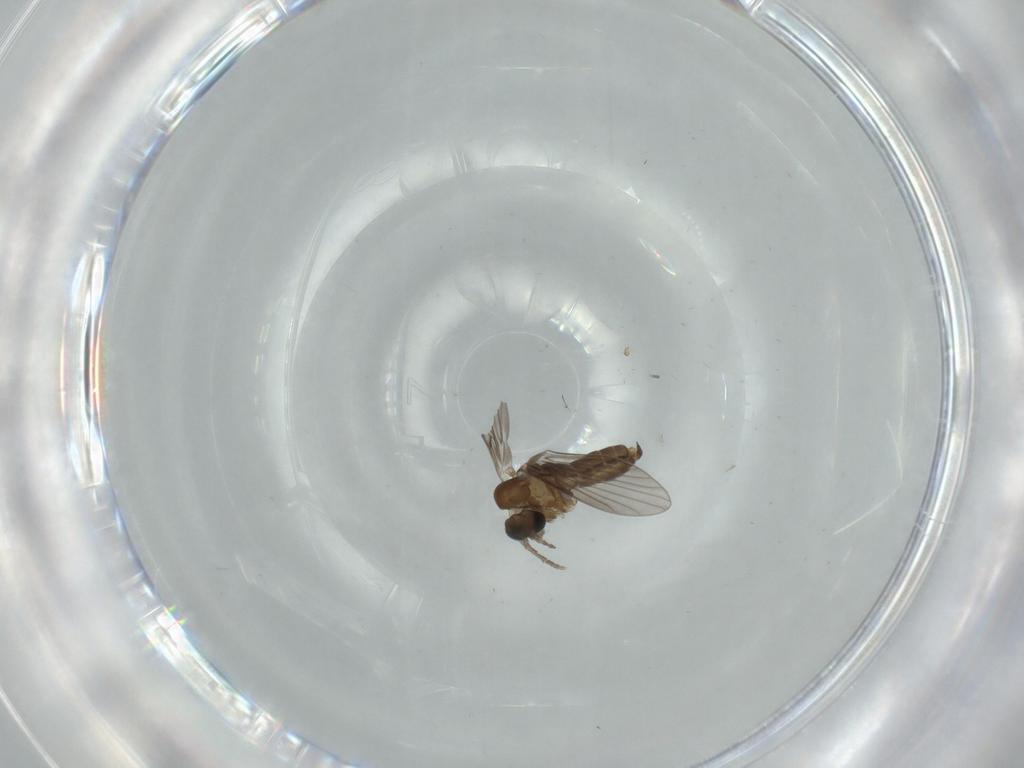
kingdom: Animalia
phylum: Arthropoda
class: Insecta
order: Diptera
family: Psychodidae
